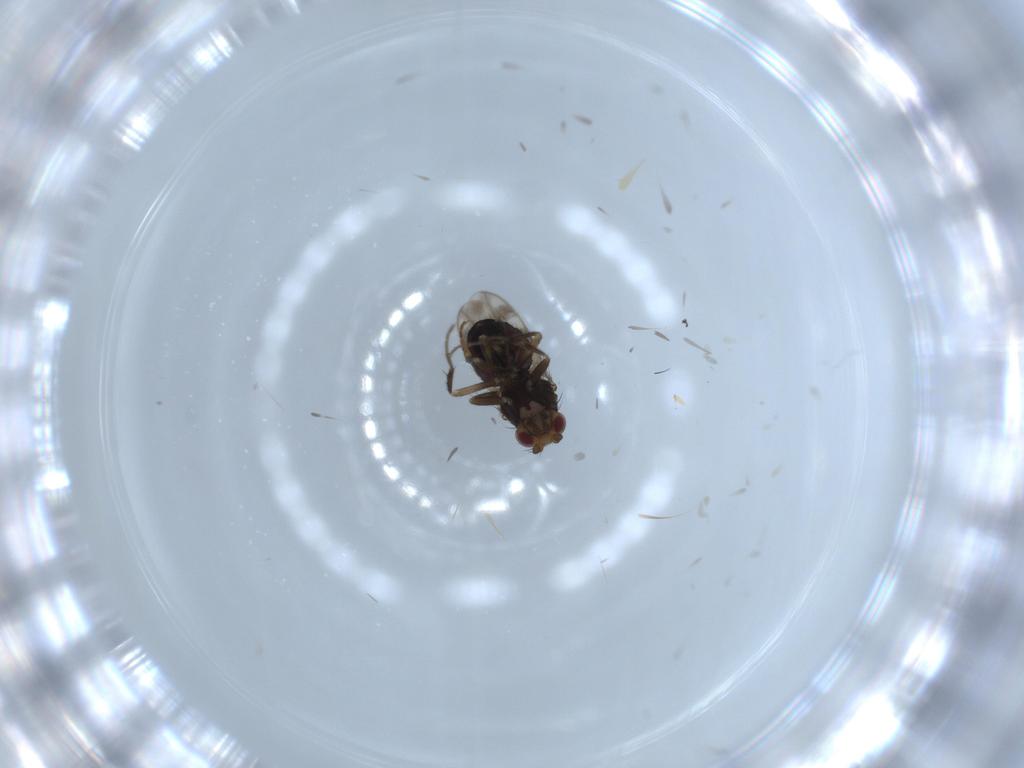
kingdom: Animalia
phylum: Arthropoda
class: Insecta
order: Diptera
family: Sphaeroceridae
